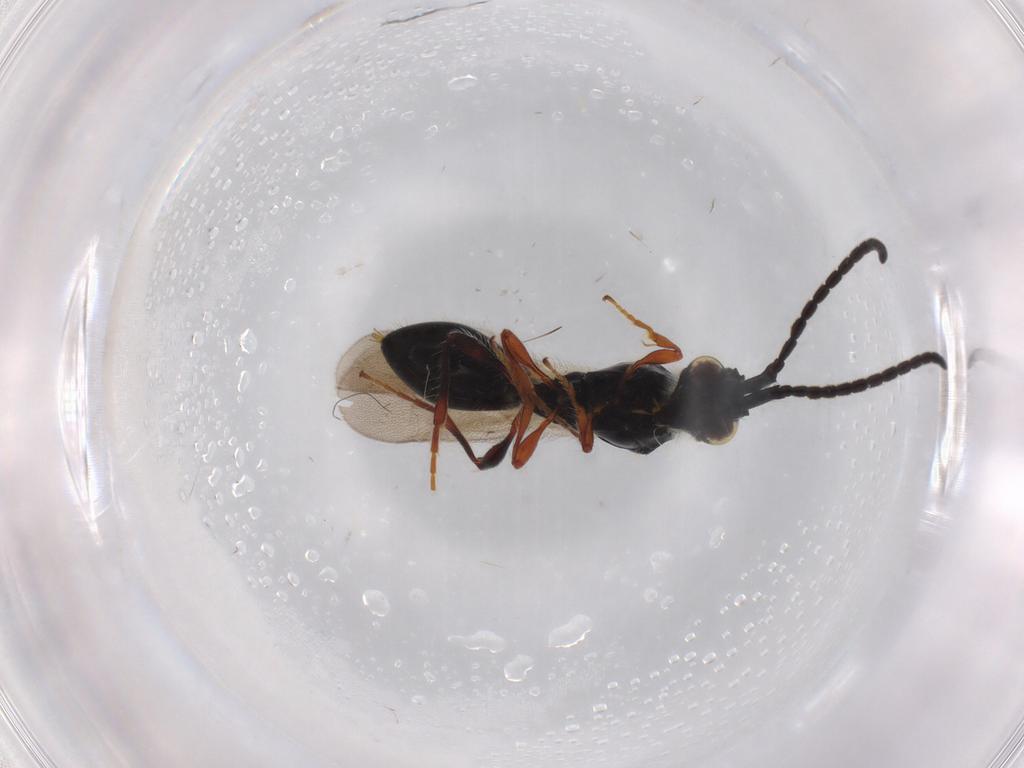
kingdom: Animalia
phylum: Arthropoda
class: Insecta
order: Hymenoptera
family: Diapriidae
